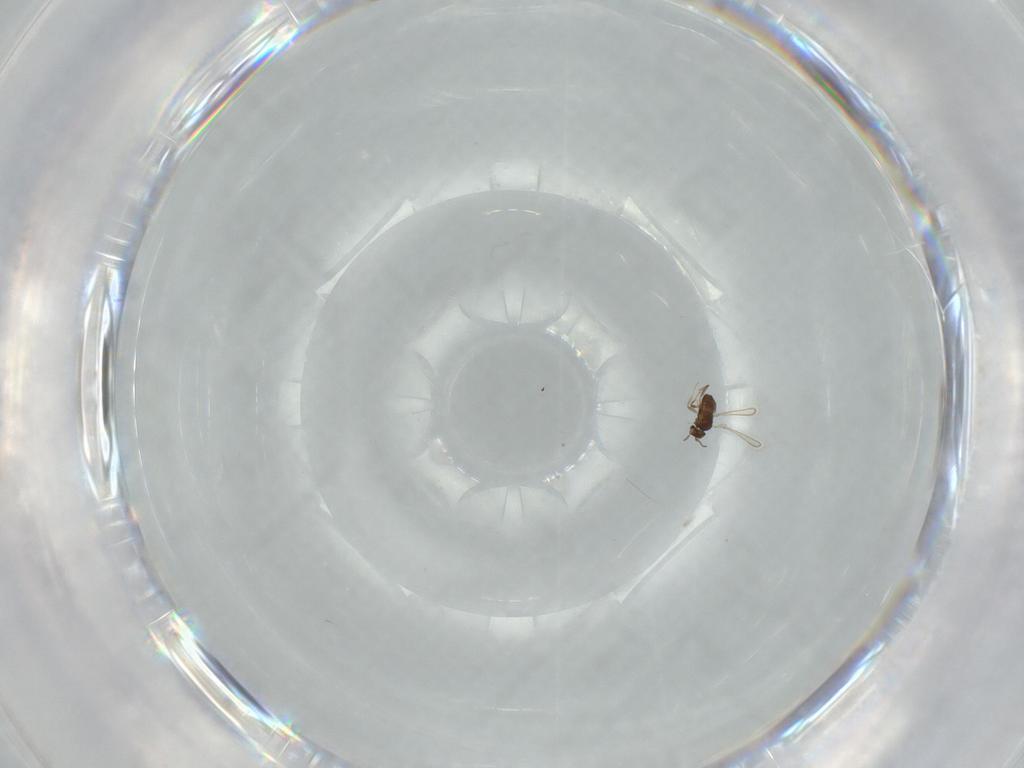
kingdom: Animalia
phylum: Arthropoda
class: Insecta
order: Hymenoptera
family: Mymaridae
